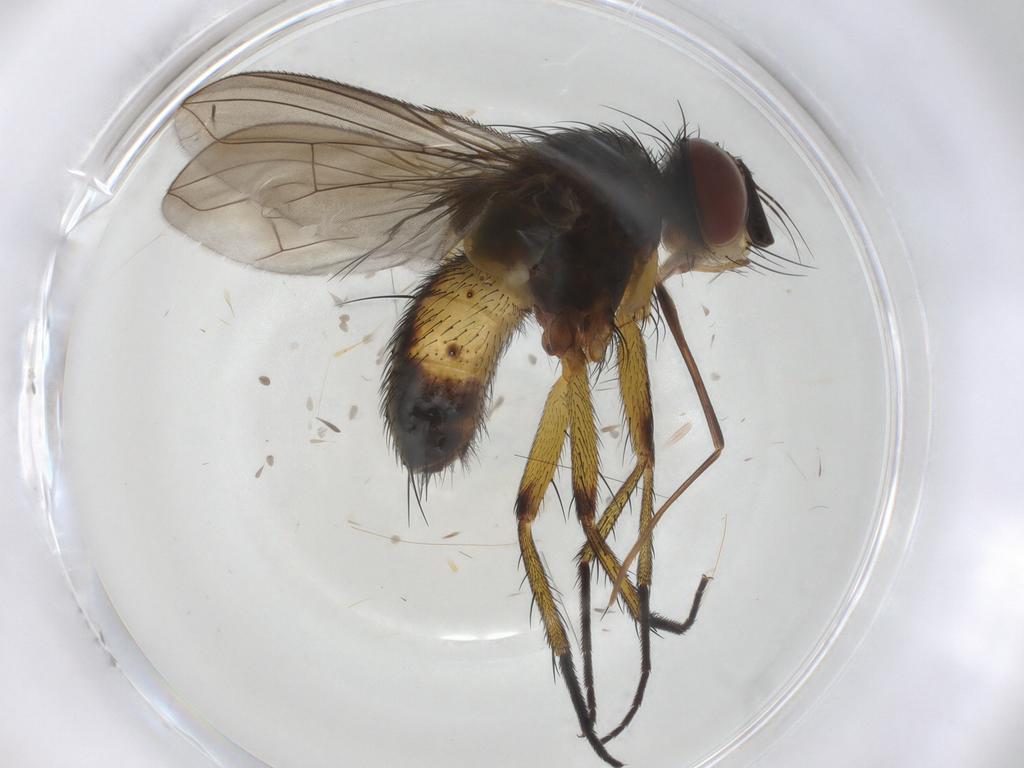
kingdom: Animalia
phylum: Arthropoda
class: Insecta
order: Diptera
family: Tachinidae
